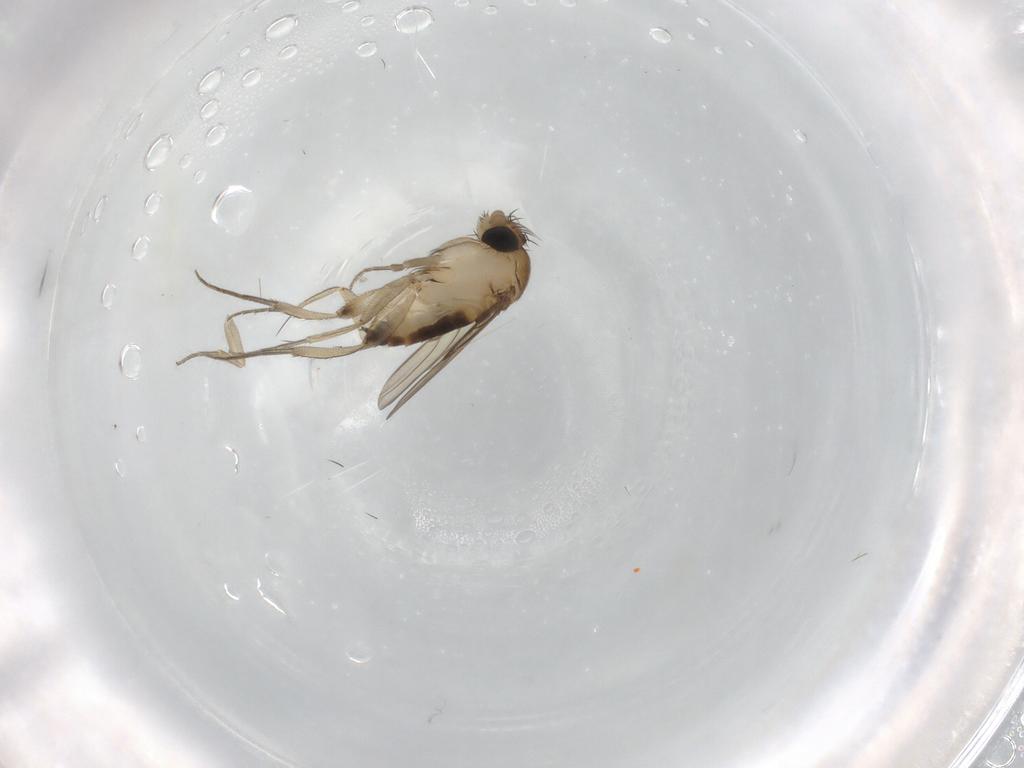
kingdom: Animalia
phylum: Arthropoda
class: Insecta
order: Diptera
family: Phoridae
